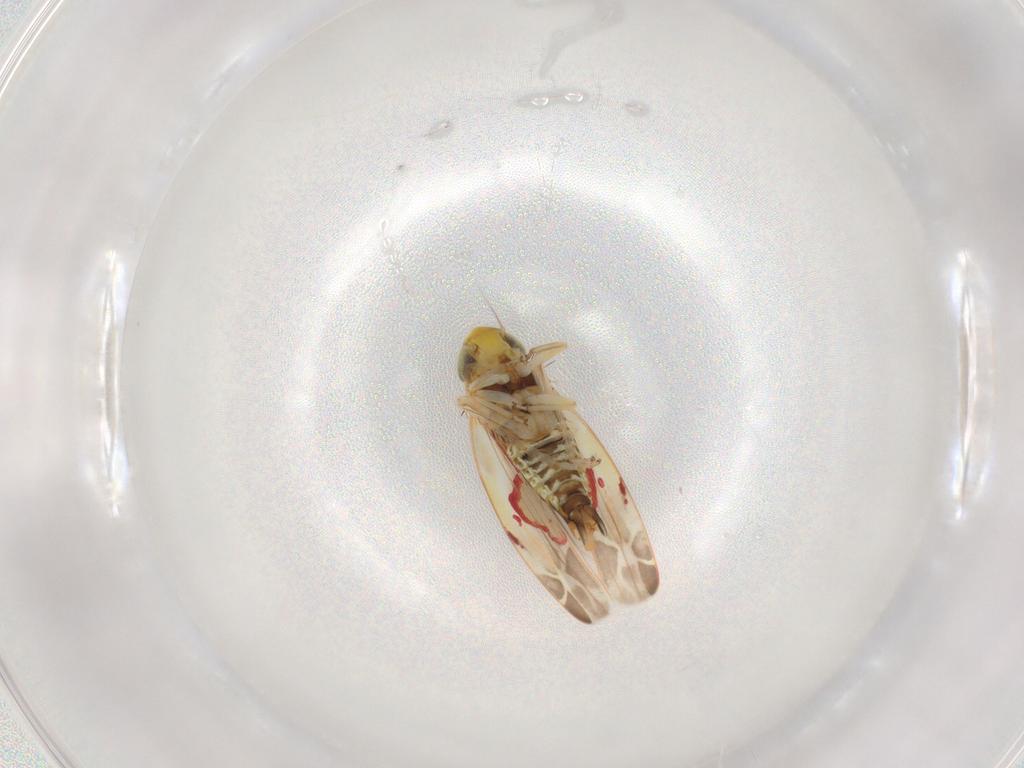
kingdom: Animalia
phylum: Arthropoda
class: Insecta
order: Hemiptera
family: Cicadellidae
